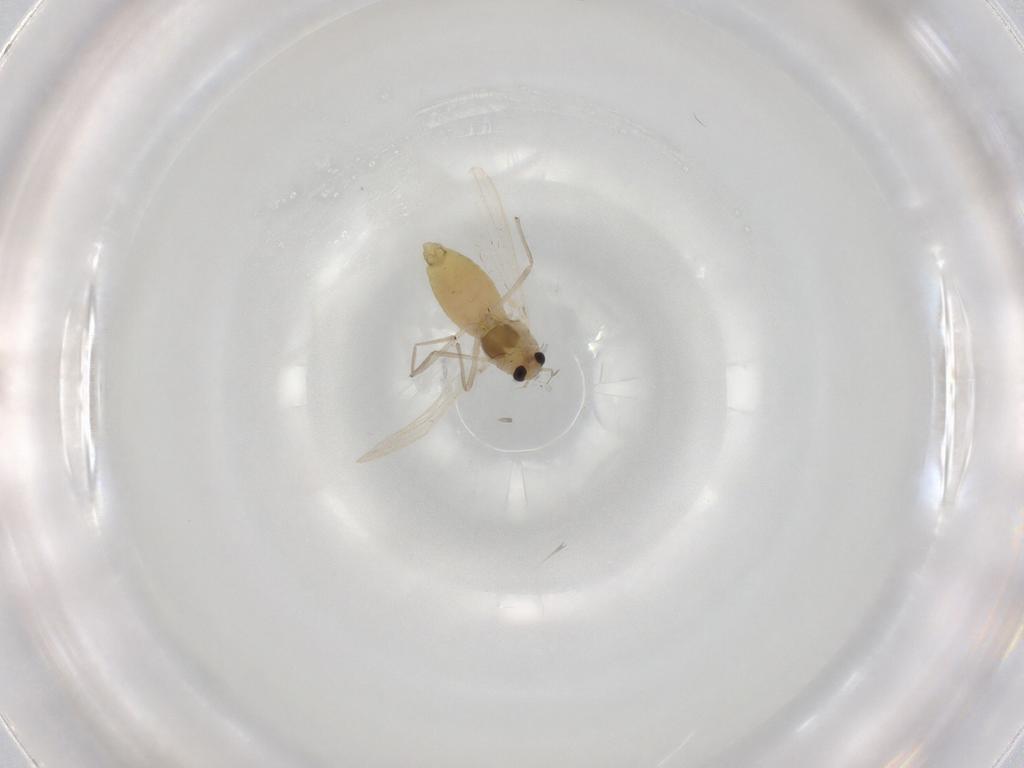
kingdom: Animalia
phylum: Arthropoda
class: Insecta
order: Diptera
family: Chironomidae
